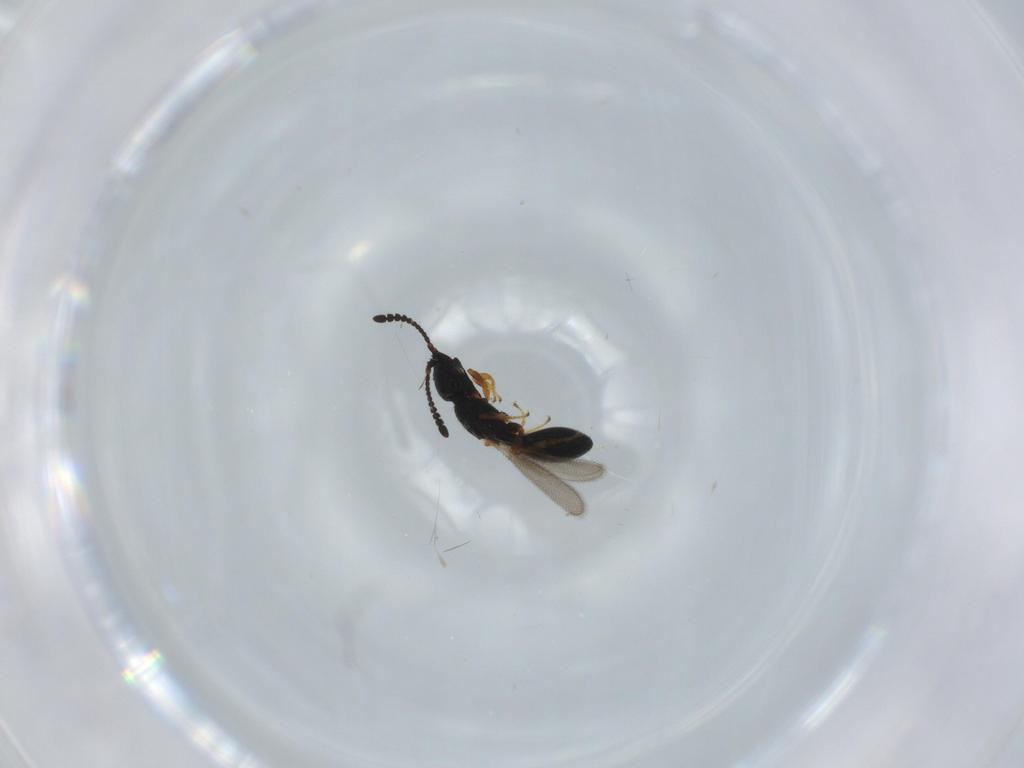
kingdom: Animalia
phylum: Arthropoda
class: Insecta
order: Hymenoptera
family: Diapriidae
